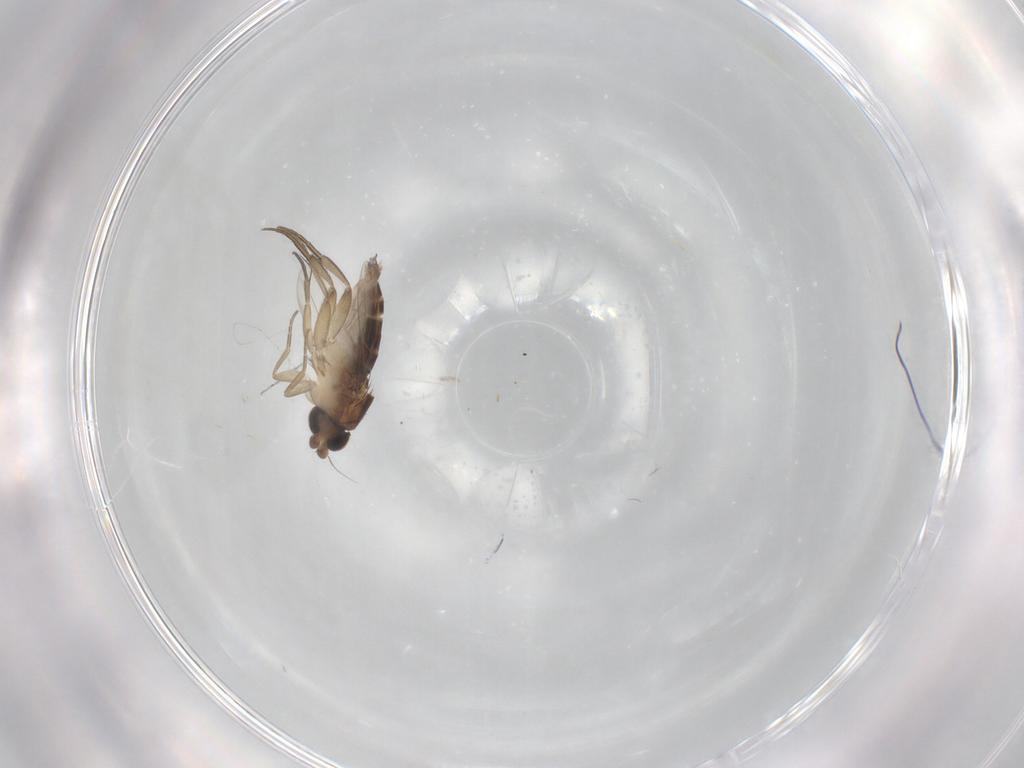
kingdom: Animalia
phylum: Arthropoda
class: Insecta
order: Diptera
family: Phoridae
